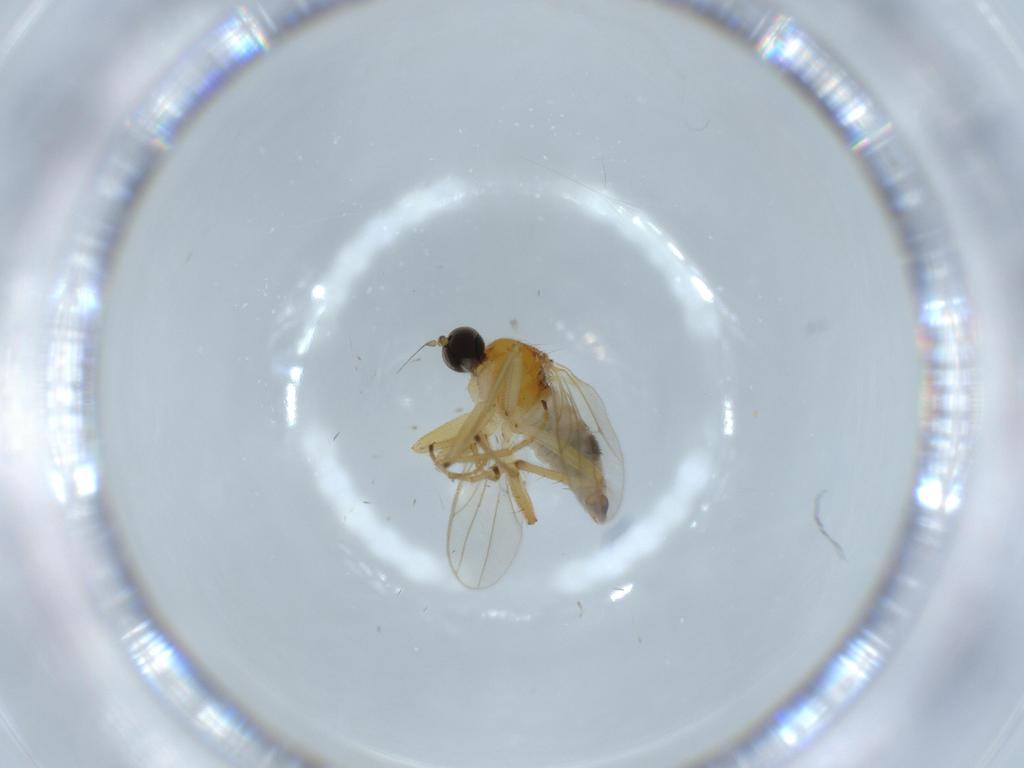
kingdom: Animalia
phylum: Arthropoda
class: Insecta
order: Diptera
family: Hybotidae
